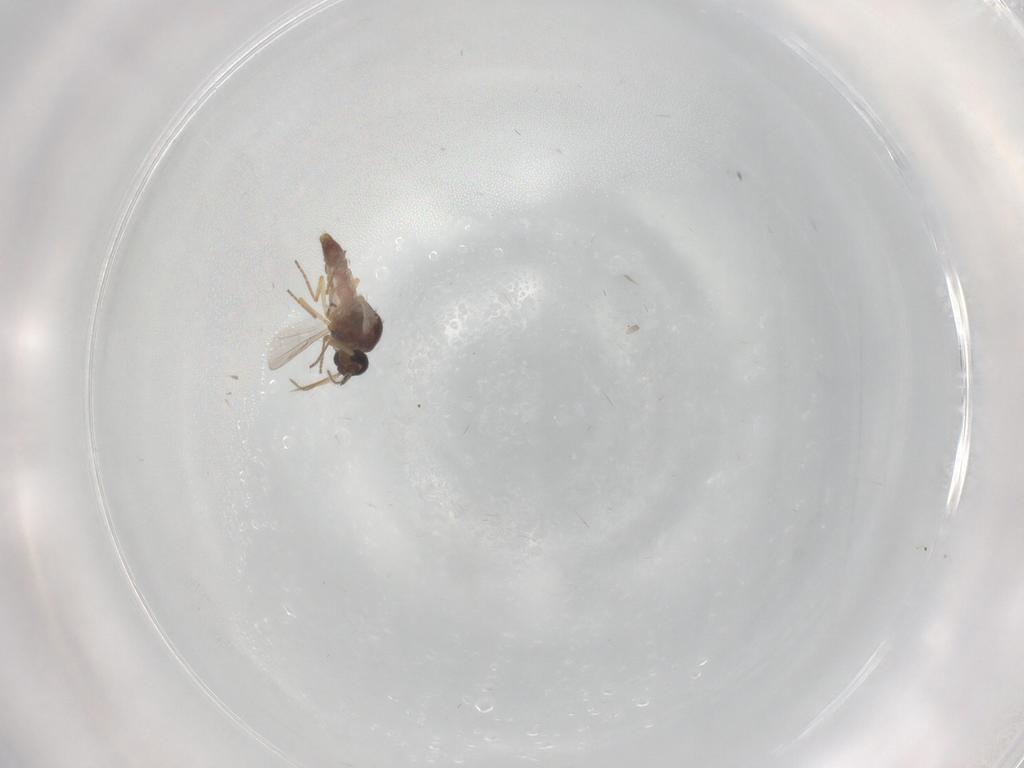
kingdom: Animalia
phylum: Arthropoda
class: Insecta
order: Diptera
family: Ceratopogonidae
